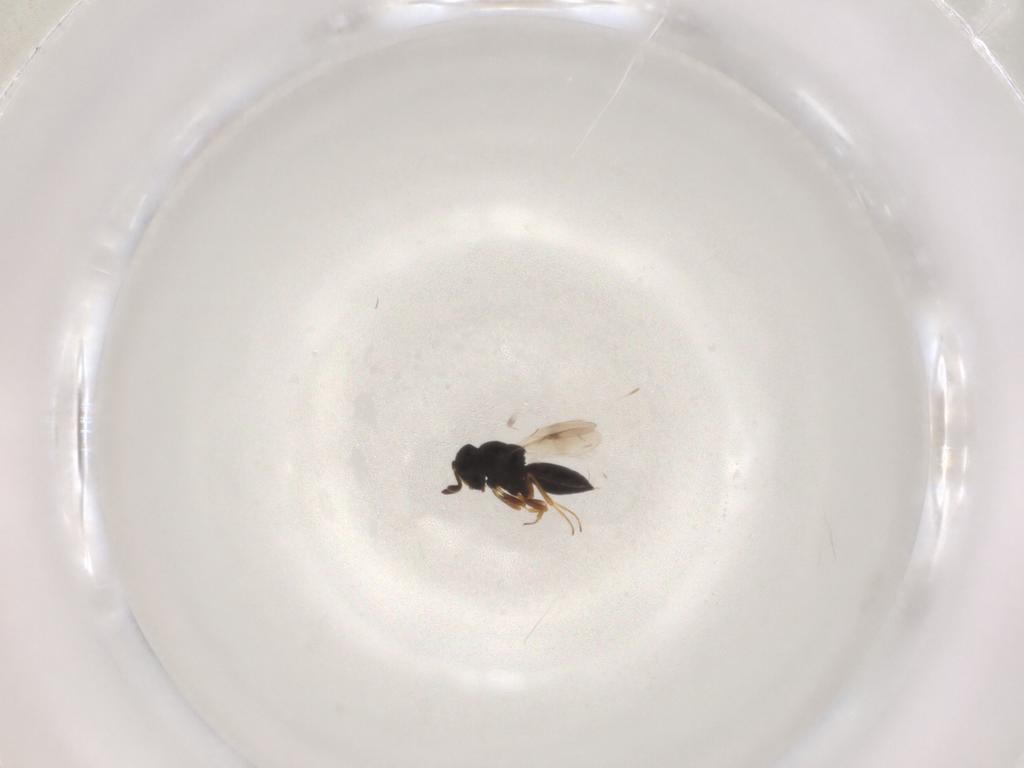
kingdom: Animalia
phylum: Arthropoda
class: Insecta
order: Hymenoptera
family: Scelionidae
